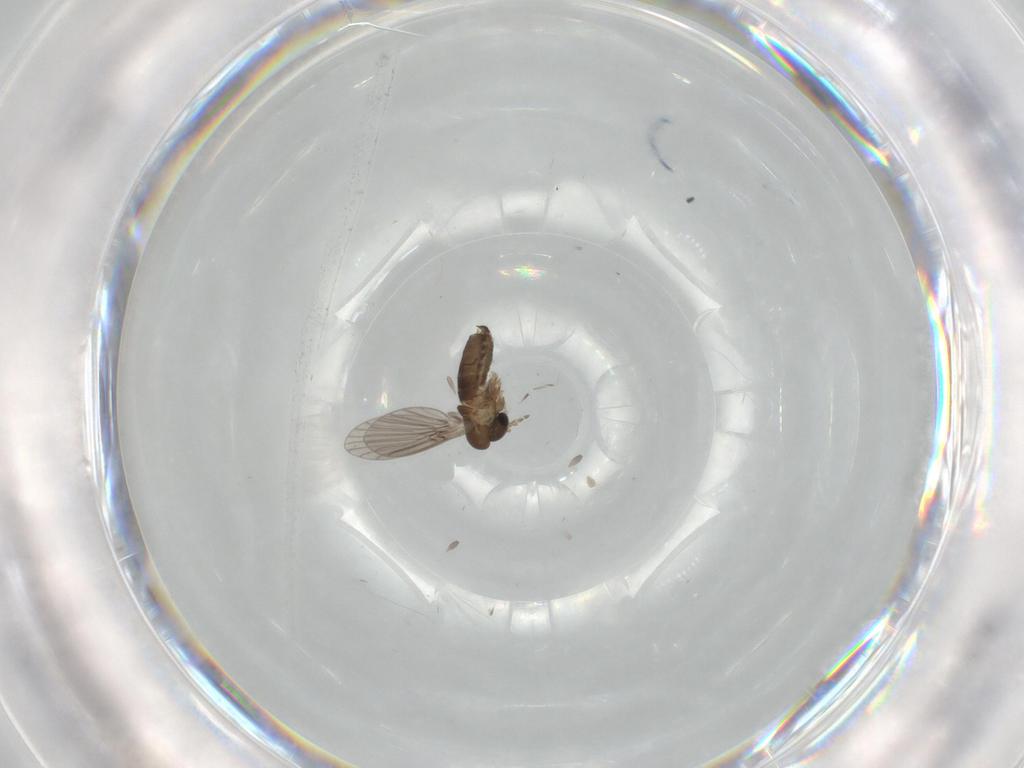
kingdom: Animalia
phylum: Arthropoda
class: Insecta
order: Diptera
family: Cecidomyiidae
